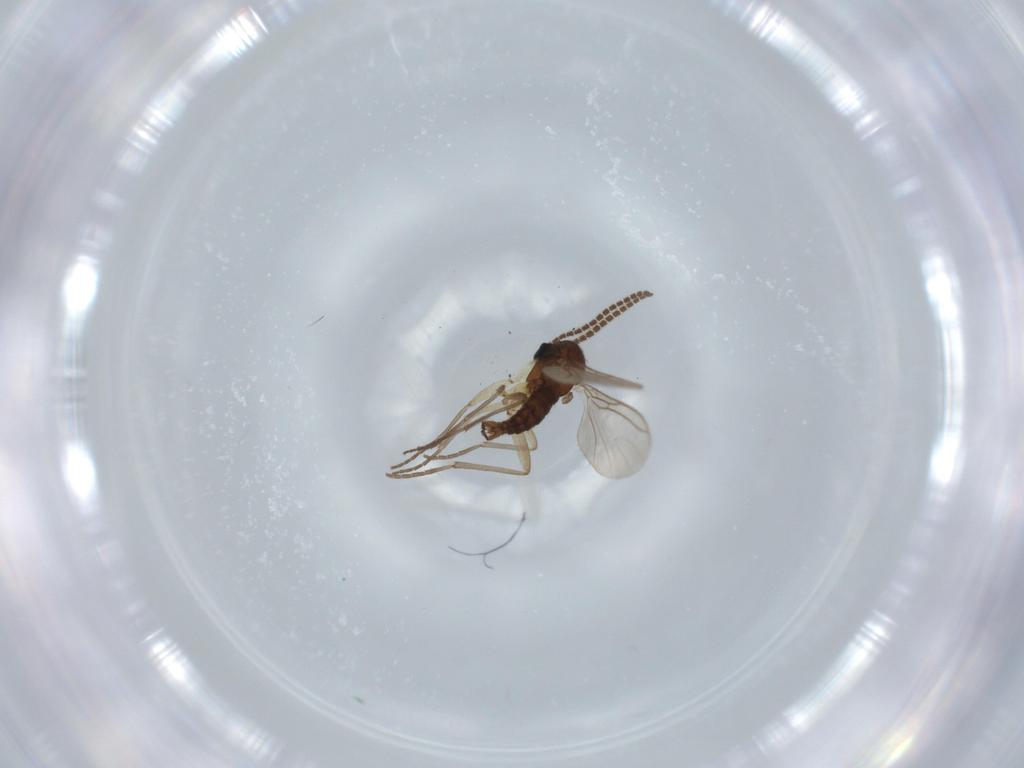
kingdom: Animalia
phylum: Arthropoda
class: Insecta
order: Diptera
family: Sciaridae
